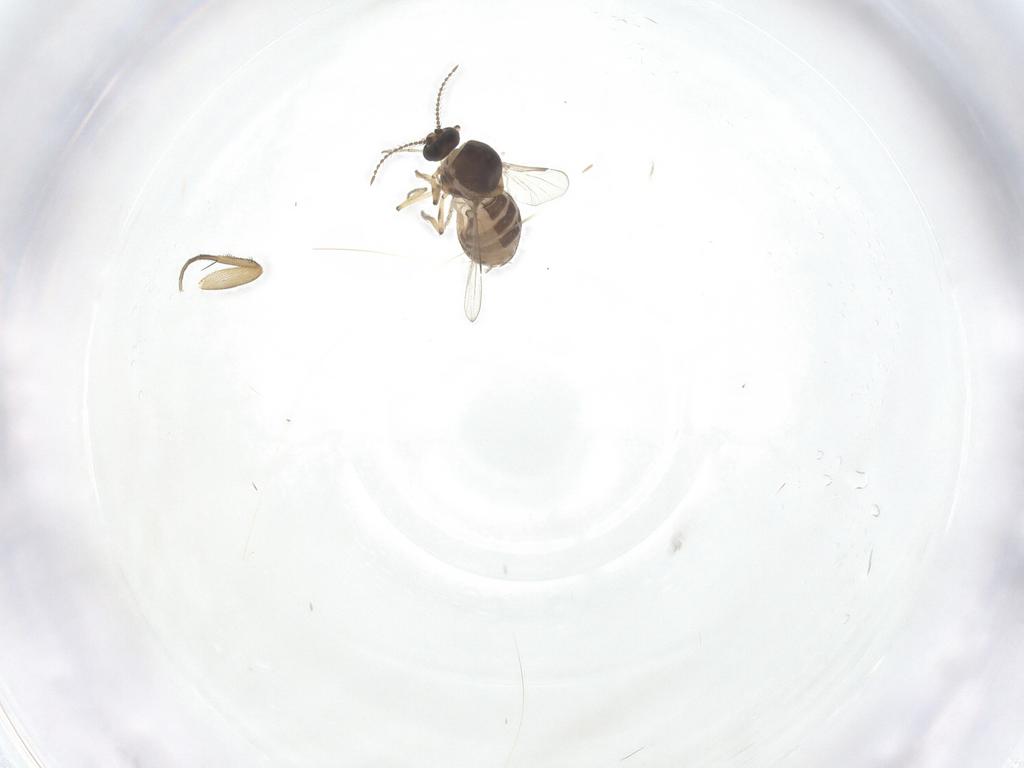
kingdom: Animalia
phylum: Arthropoda
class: Insecta
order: Diptera
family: Ceratopogonidae
